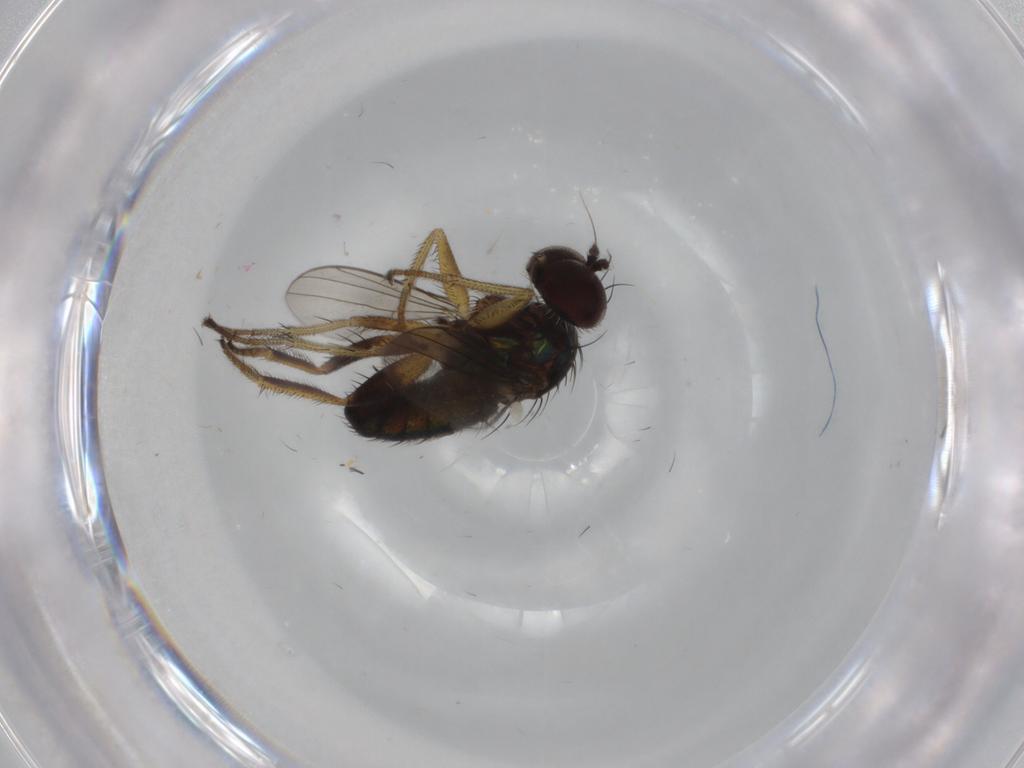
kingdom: Animalia
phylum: Arthropoda
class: Insecta
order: Diptera
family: Dolichopodidae
